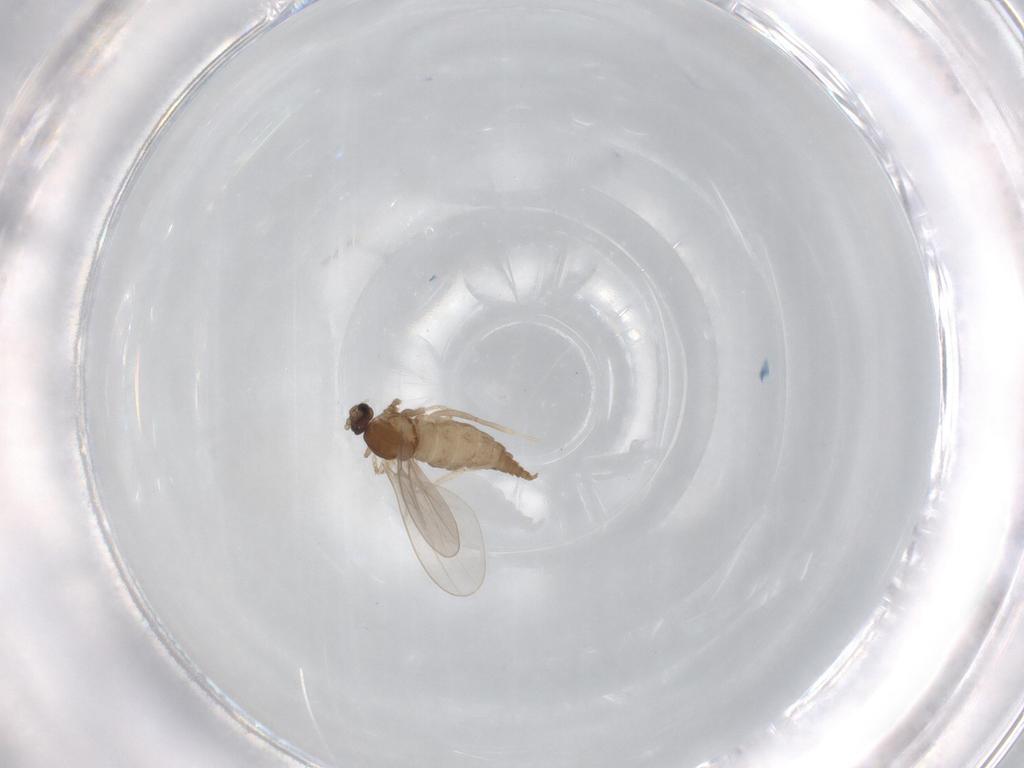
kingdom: Animalia
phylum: Arthropoda
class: Insecta
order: Diptera
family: Cecidomyiidae
